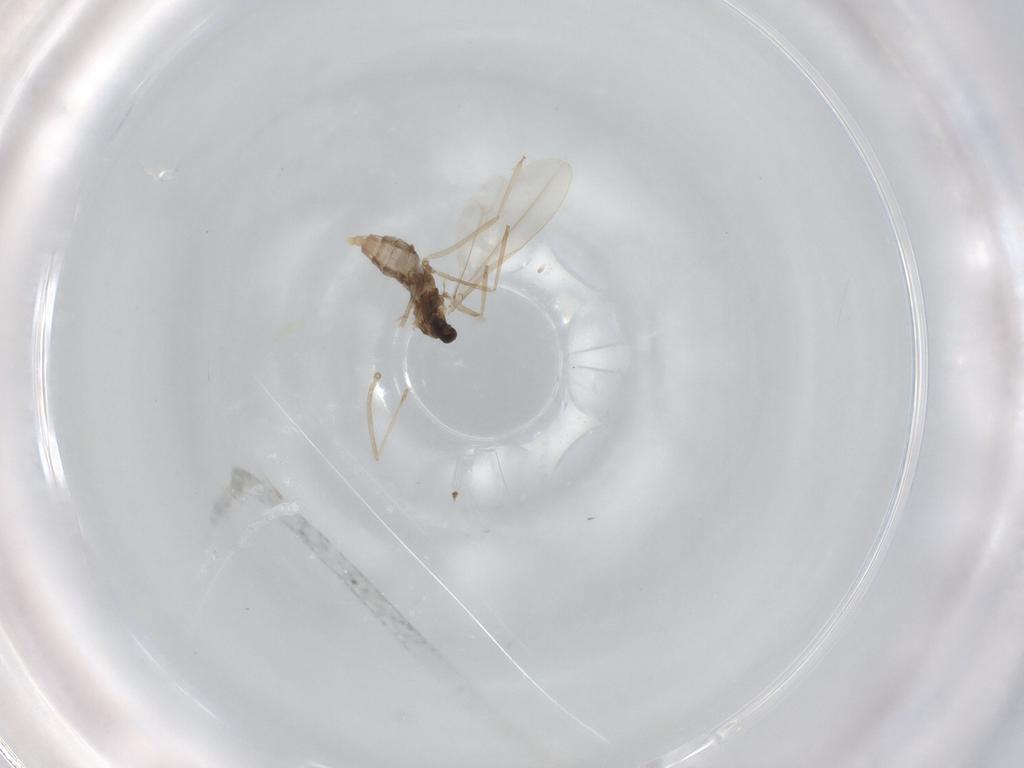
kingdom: Animalia
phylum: Arthropoda
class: Insecta
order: Diptera
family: Cecidomyiidae
